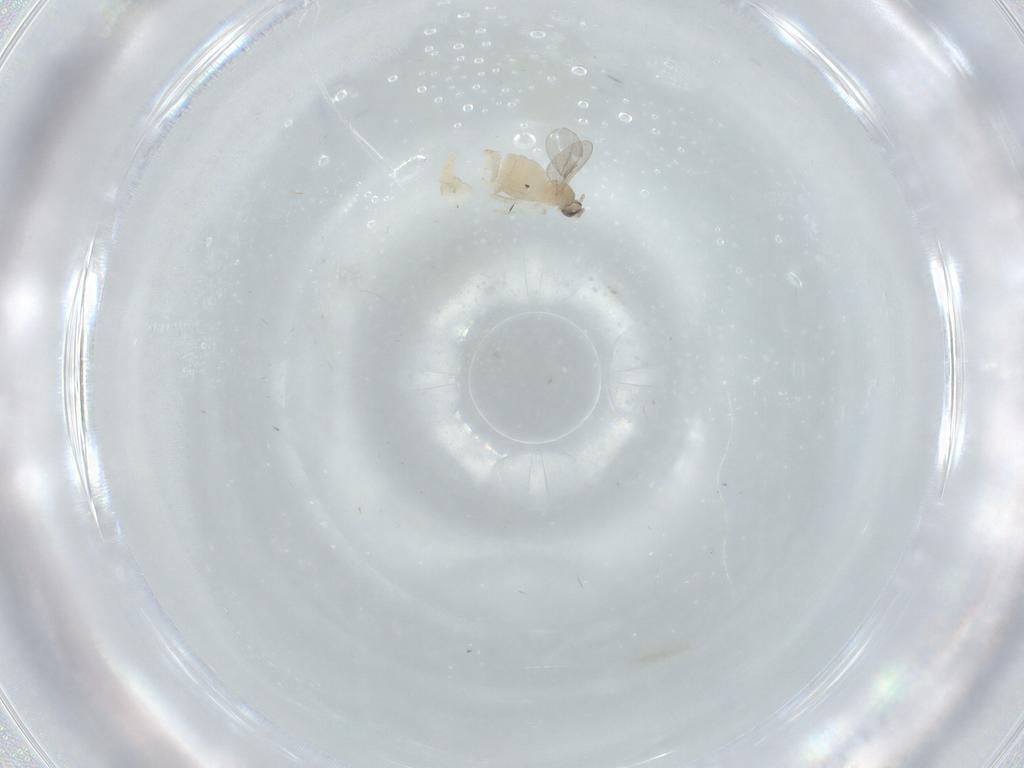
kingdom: Animalia
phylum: Arthropoda
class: Insecta
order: Diptera
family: Cecidomyiidae
